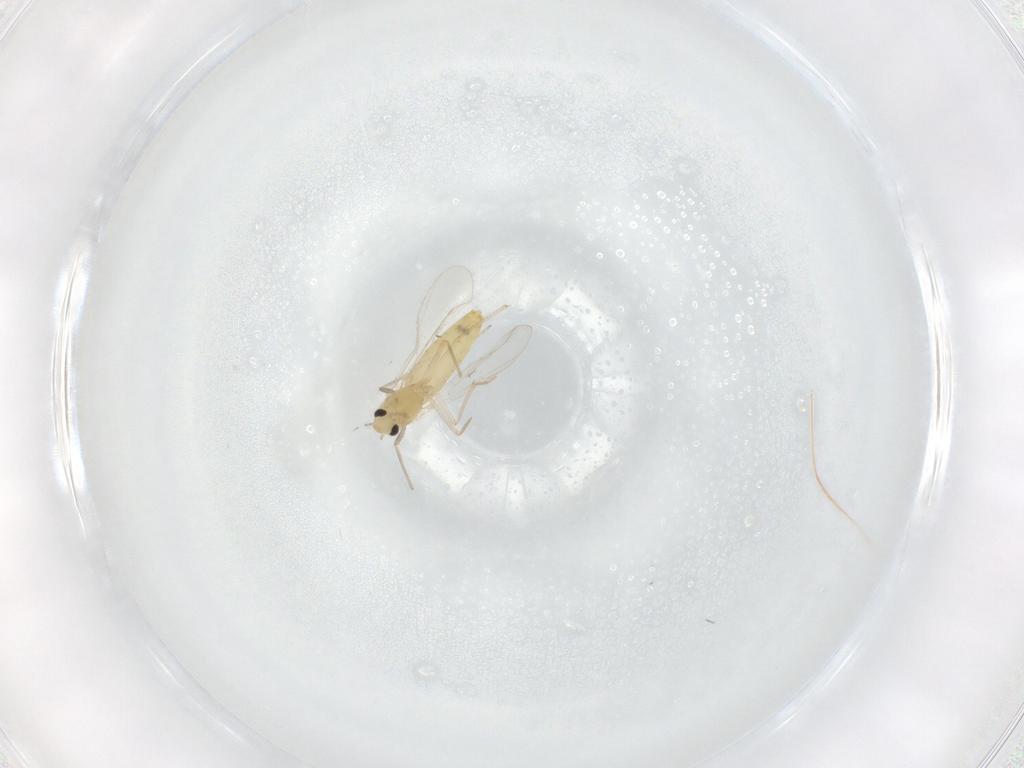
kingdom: Animalia
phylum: Arthropoda
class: Insecta
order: Diptera
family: Chironomidae
